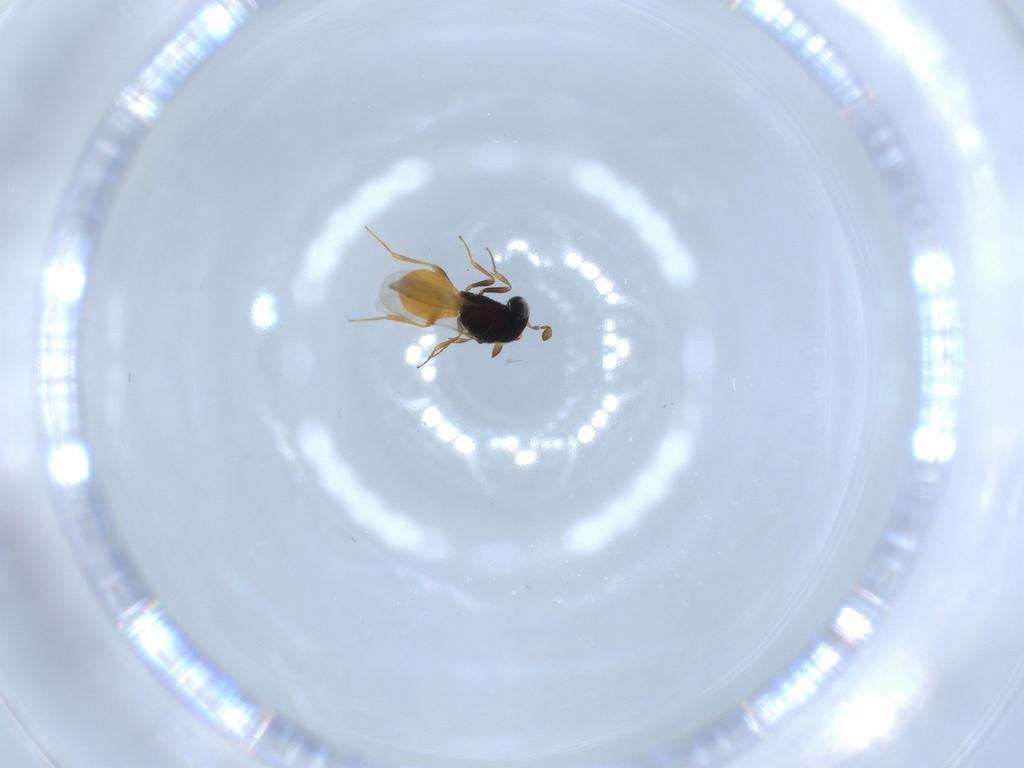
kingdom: Animalia
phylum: Arthropoda
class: Insecta
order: Hymenoptera
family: Scelionidae
